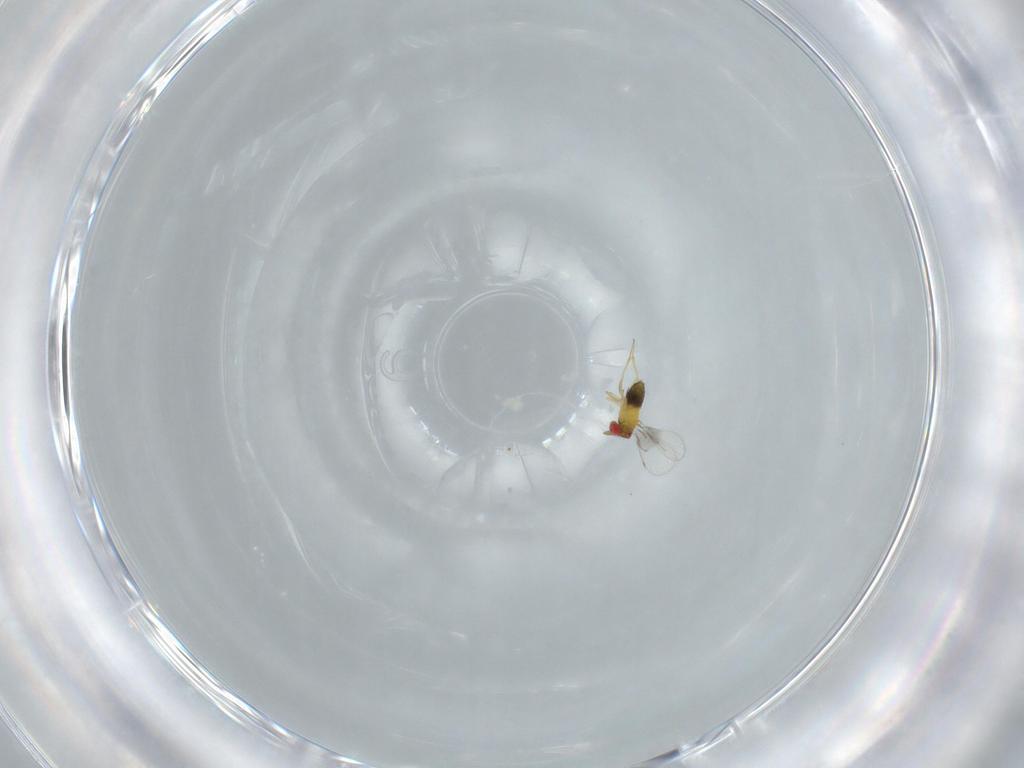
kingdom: Animalia
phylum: Arthropoda
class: Insecta
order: Hymenoptera
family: Trichogrammatidae
